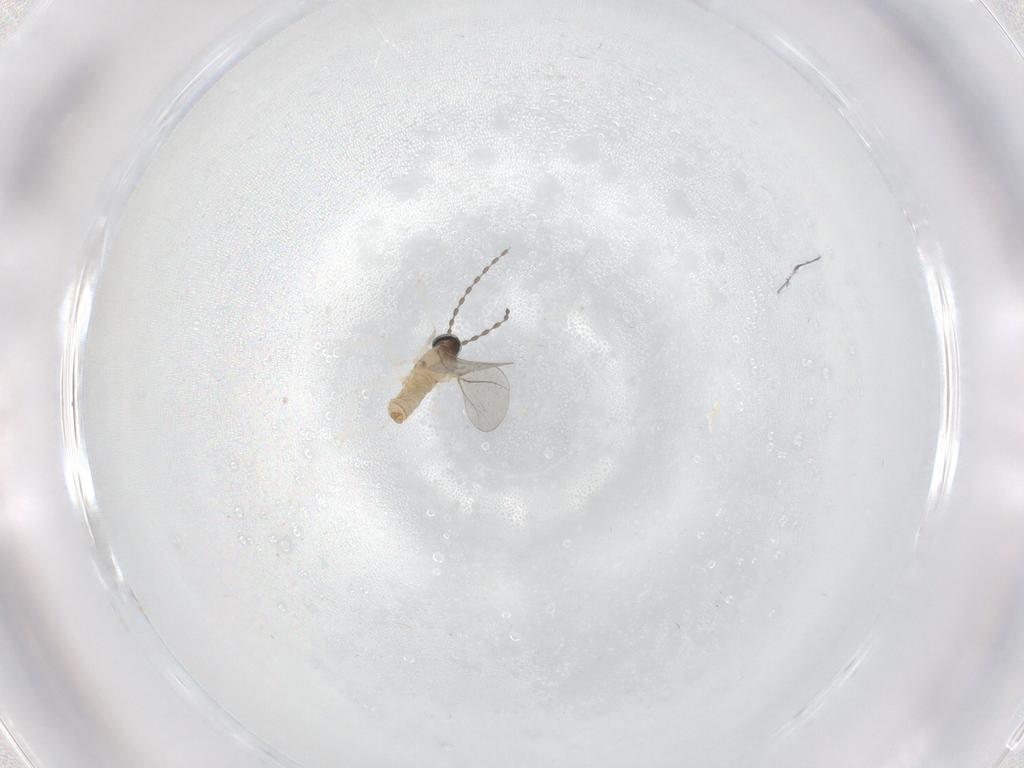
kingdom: Animalia
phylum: Arthropoda
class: Insecta
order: Diptera
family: Cecidomyiidae
